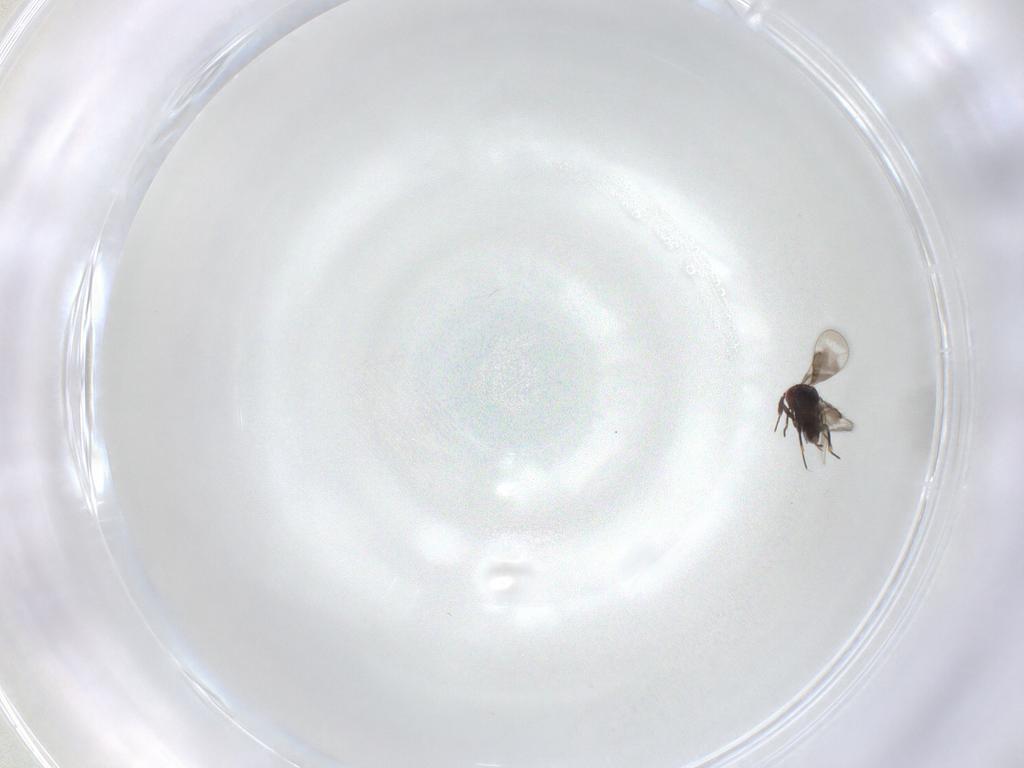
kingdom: Animalia
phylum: Arthropoda
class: Insecta
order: Hymenoptera
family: Eulophidae
